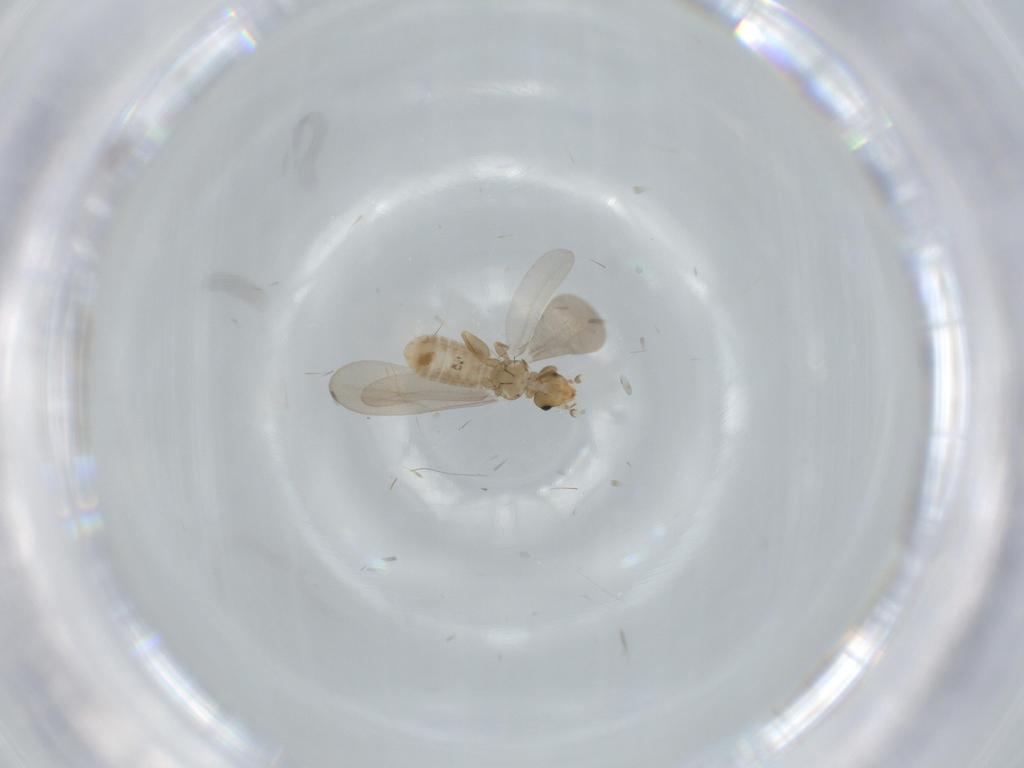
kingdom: Animalia
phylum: Arthropoda
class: Insecta
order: Psocodea
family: Liposcelididae
